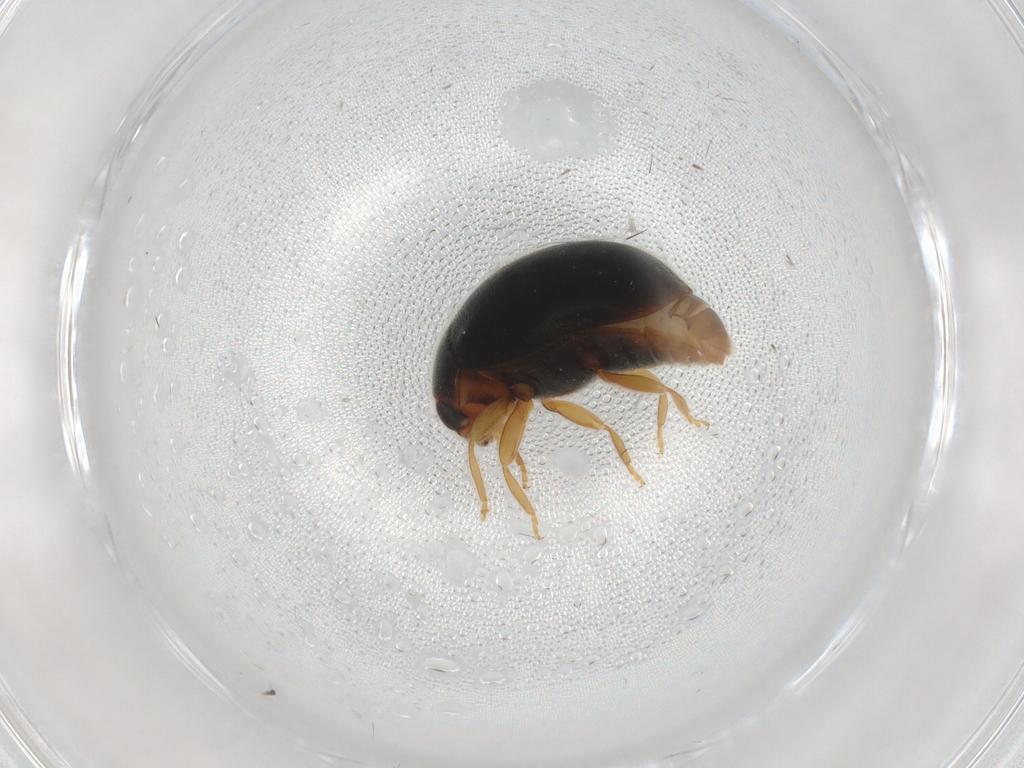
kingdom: Animalia
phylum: Arthropoda
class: Insecta
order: Coleoptera
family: Coccinellidae
